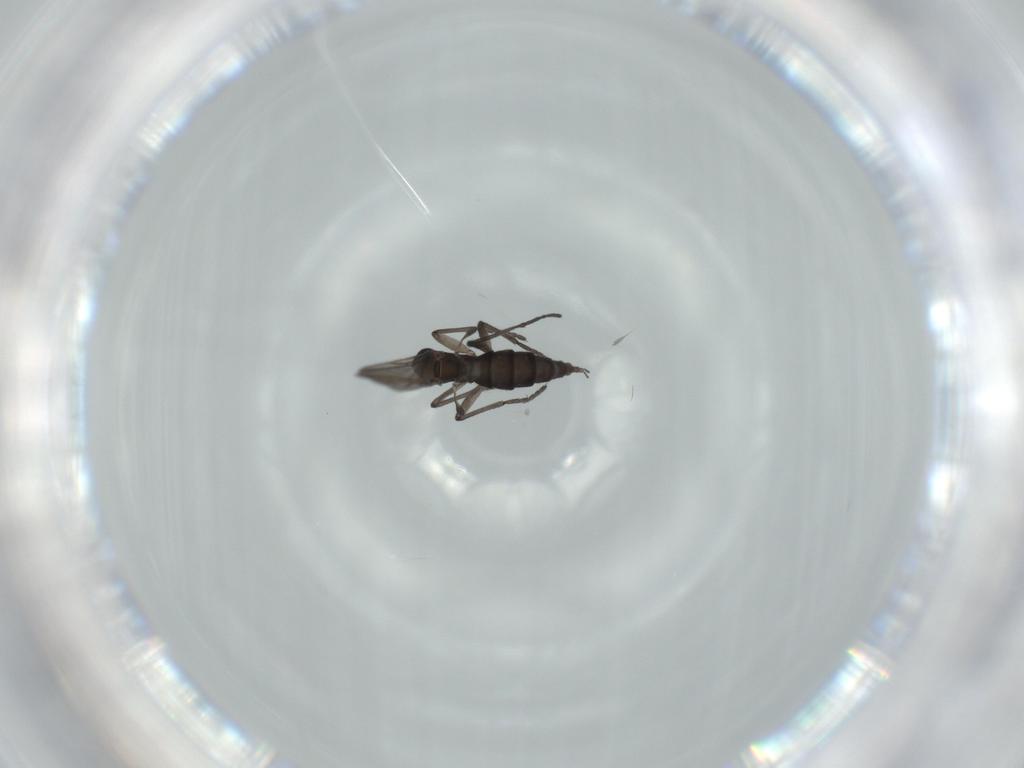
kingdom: Animalia
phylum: Arthropoda
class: Insecta
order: Diptera
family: Sciaridae
